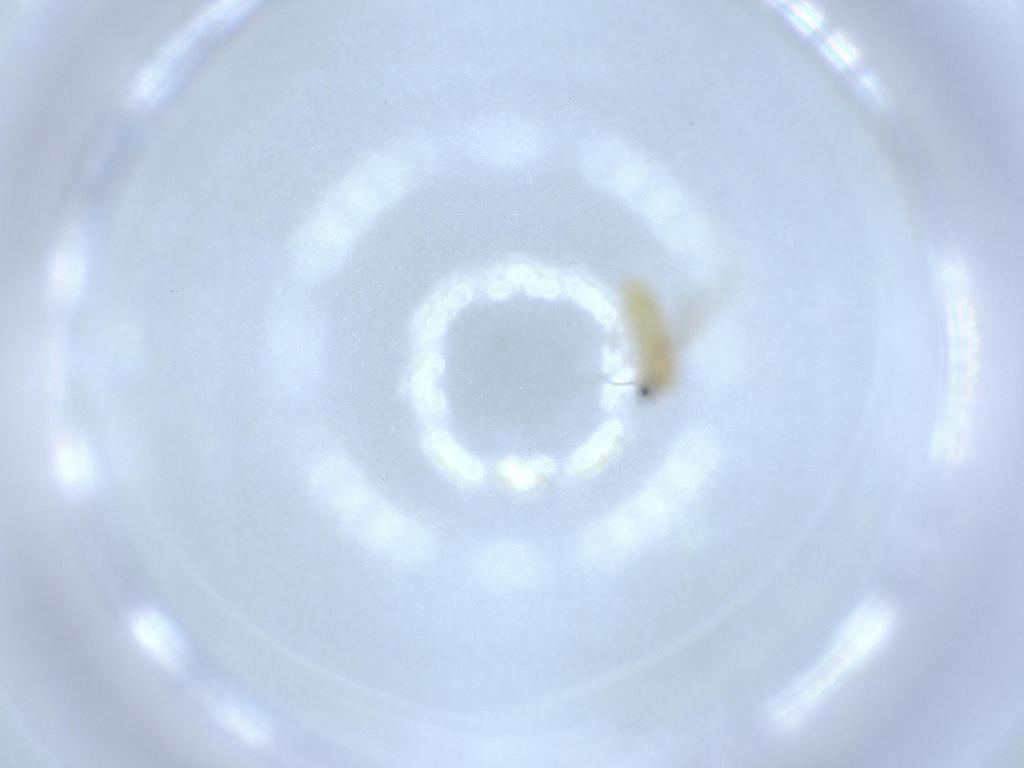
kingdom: Animalia
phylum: Arthropoda
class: Insecta
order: Diptera
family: Chironomidae
